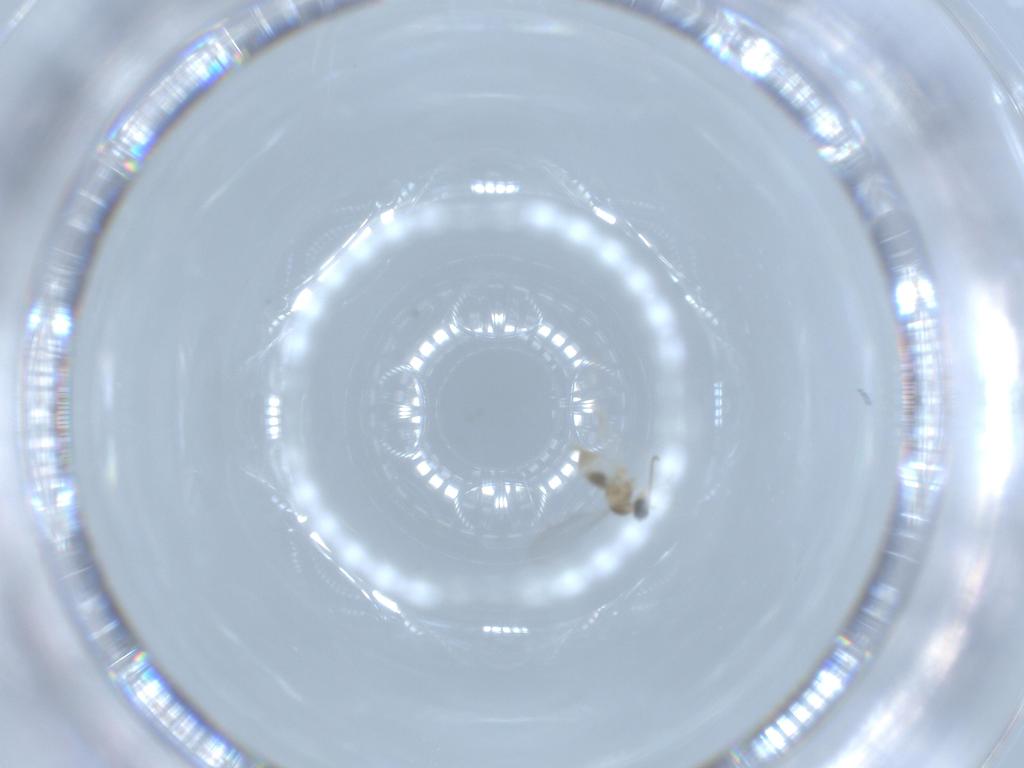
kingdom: Animalia
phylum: Arthropoda
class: Insecta
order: Diptera
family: Cecidomyiidae
